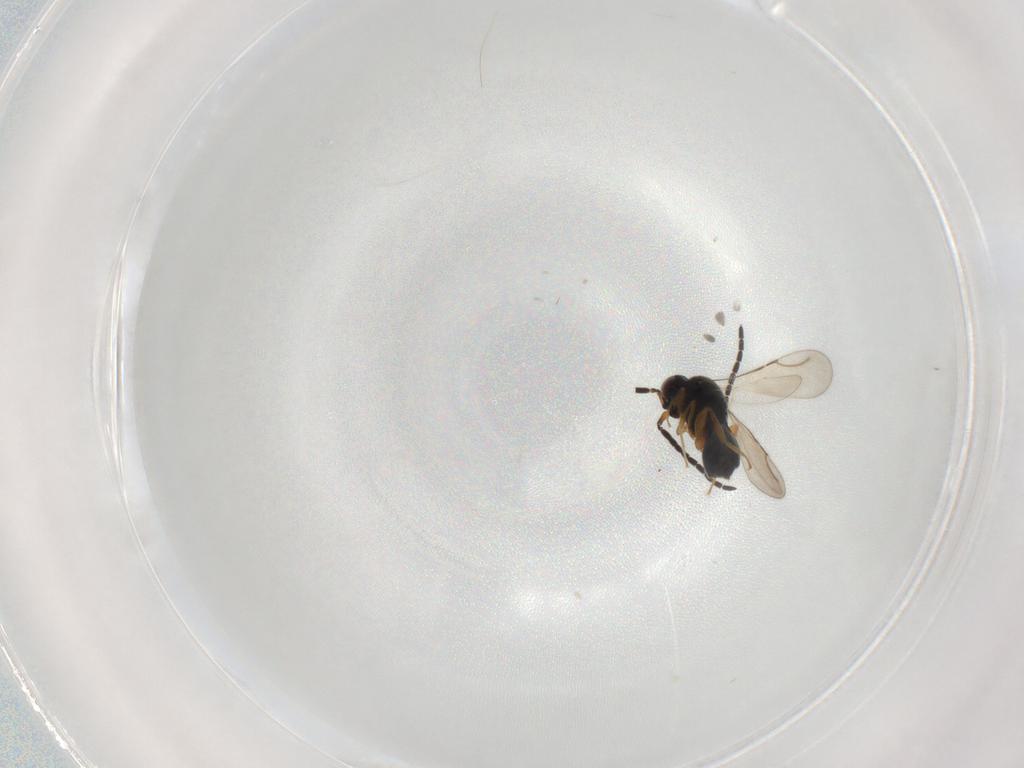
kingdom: Animalia
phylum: Arthropoda
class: Insecta
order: Hymenoptera
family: Ceraphronidae
